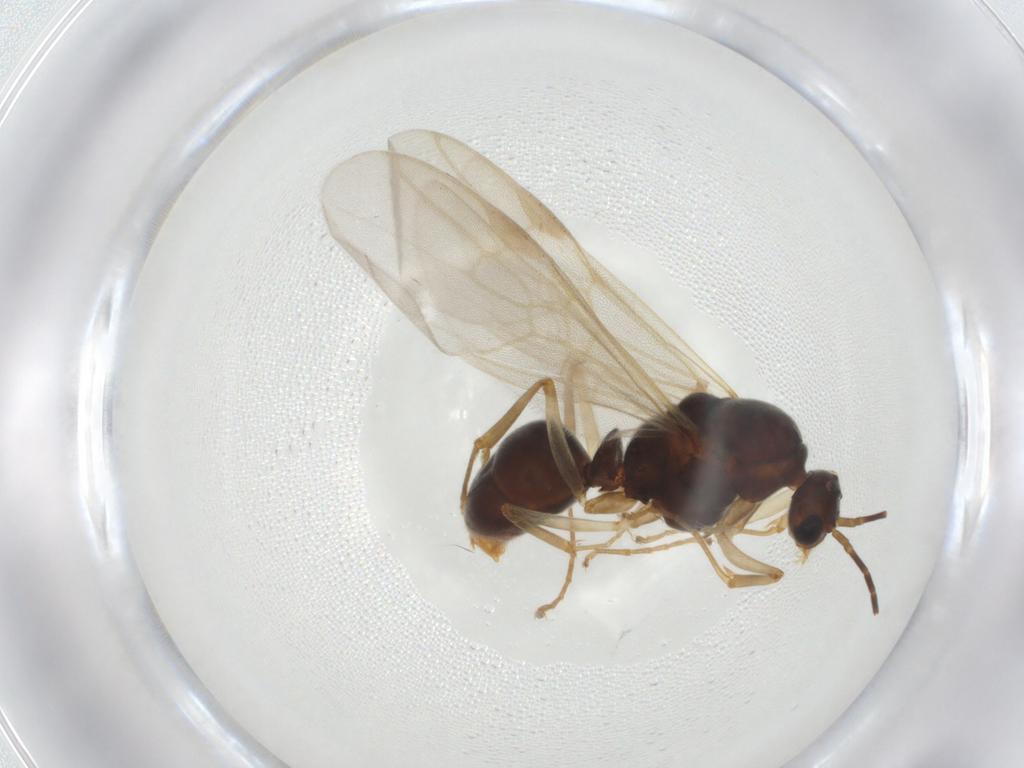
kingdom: Animalia
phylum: Arthropoda
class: Insecta
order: Hymenoptera
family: Formicidae
